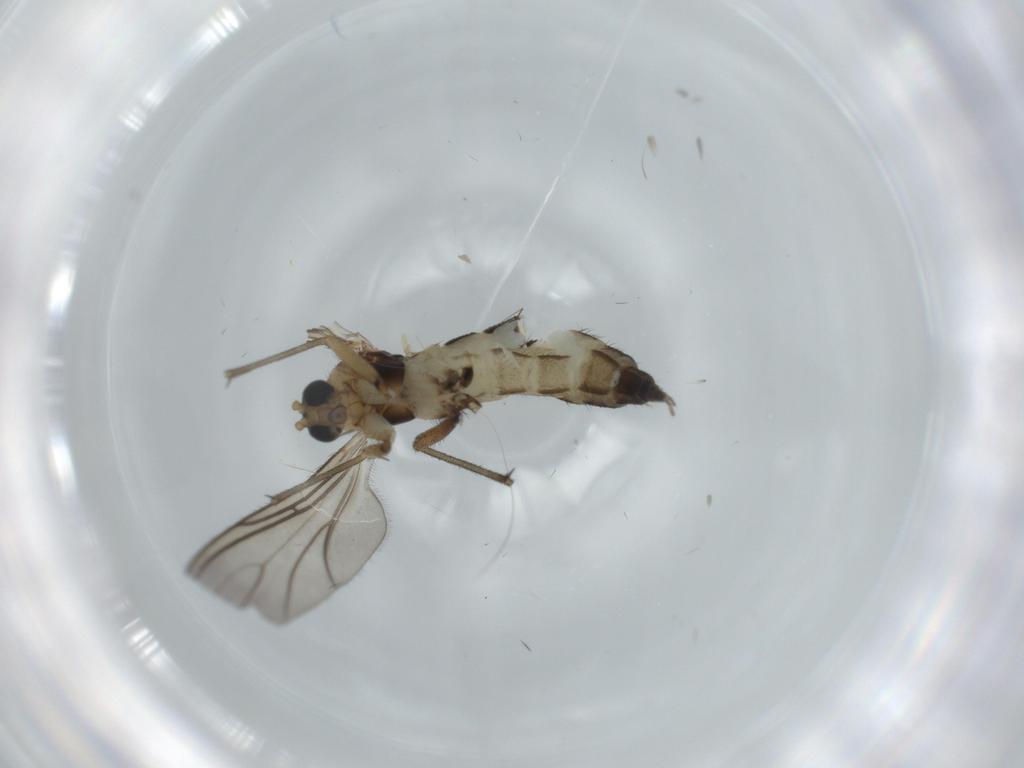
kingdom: Animalia
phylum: Arthropoda
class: Insecta
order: Diptera
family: Sciaridae
